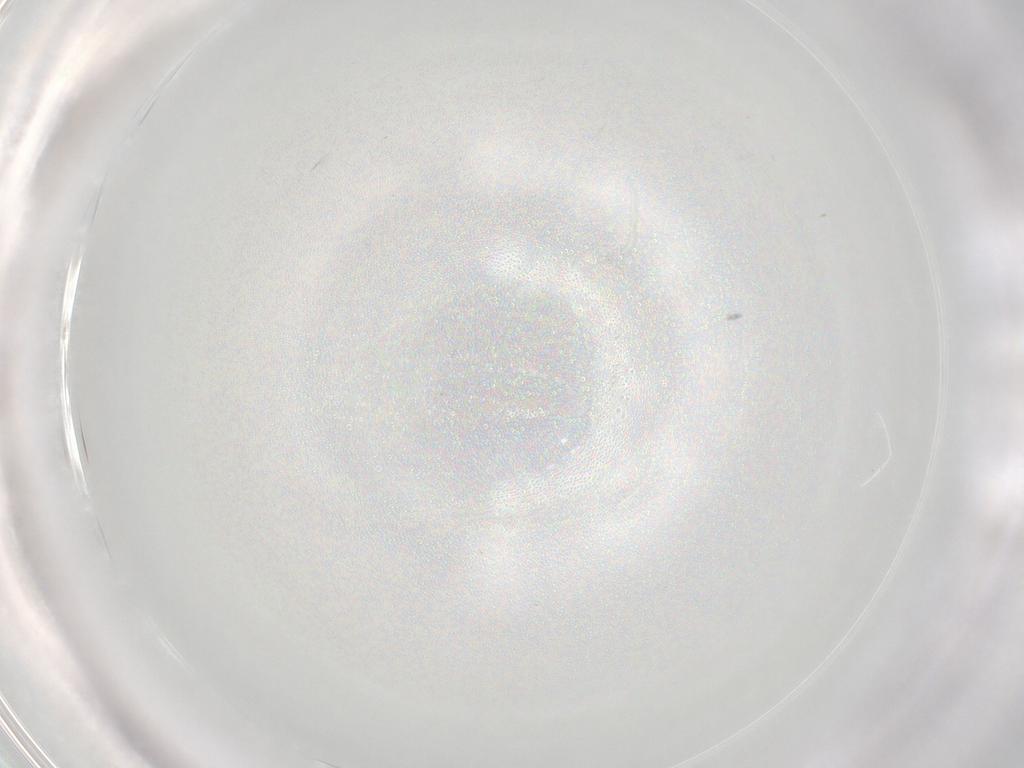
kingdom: Animalia
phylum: Arthropoda
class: Insecta
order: Diptera
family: Cecidomyiidae
